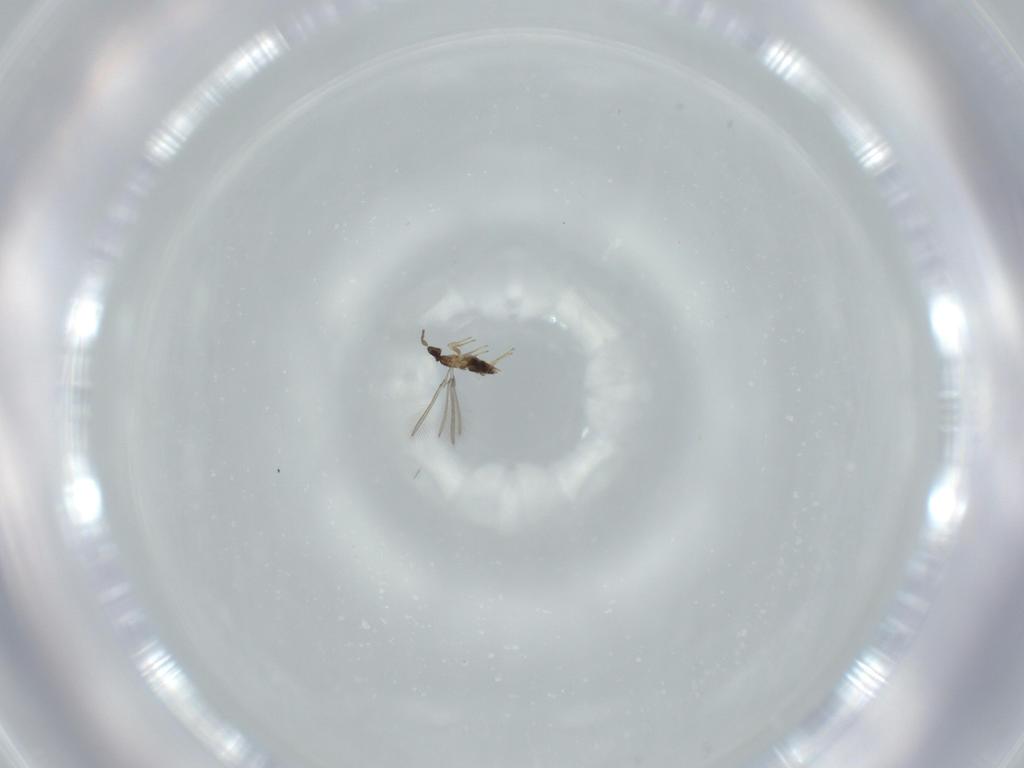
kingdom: Animalia
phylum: Arthropoda
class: Insecta
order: Hymenoptera
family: Mymaridae
